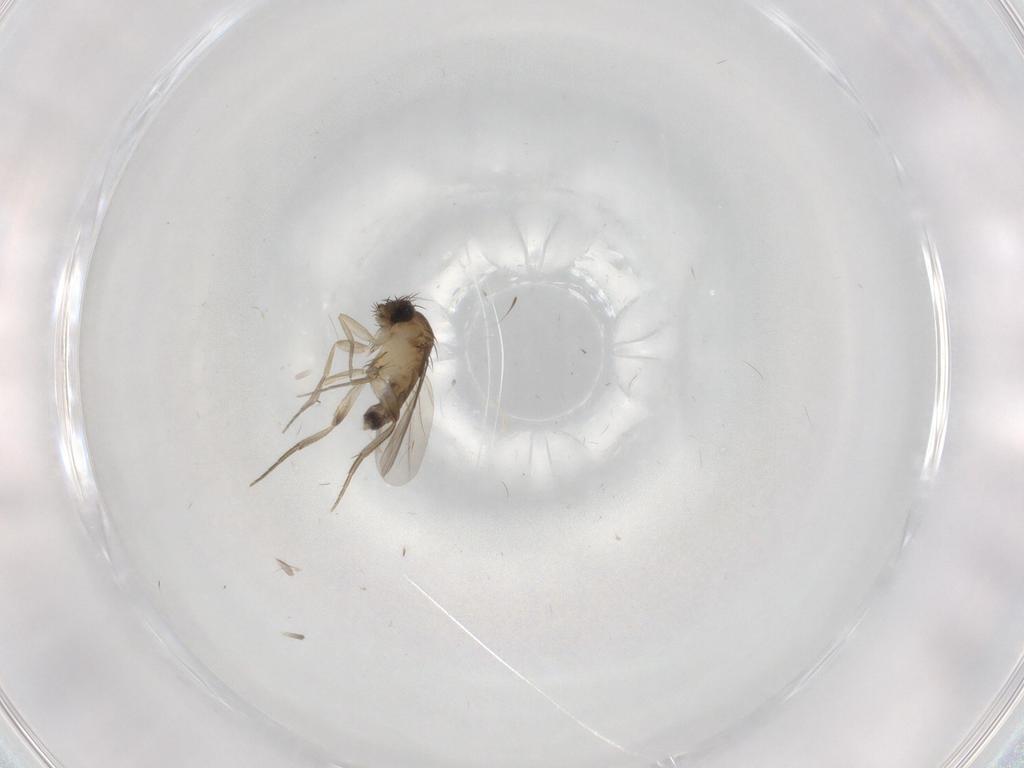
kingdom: Animalia
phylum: Arthropoda
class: Insecta
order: Diptera
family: Phoridae
